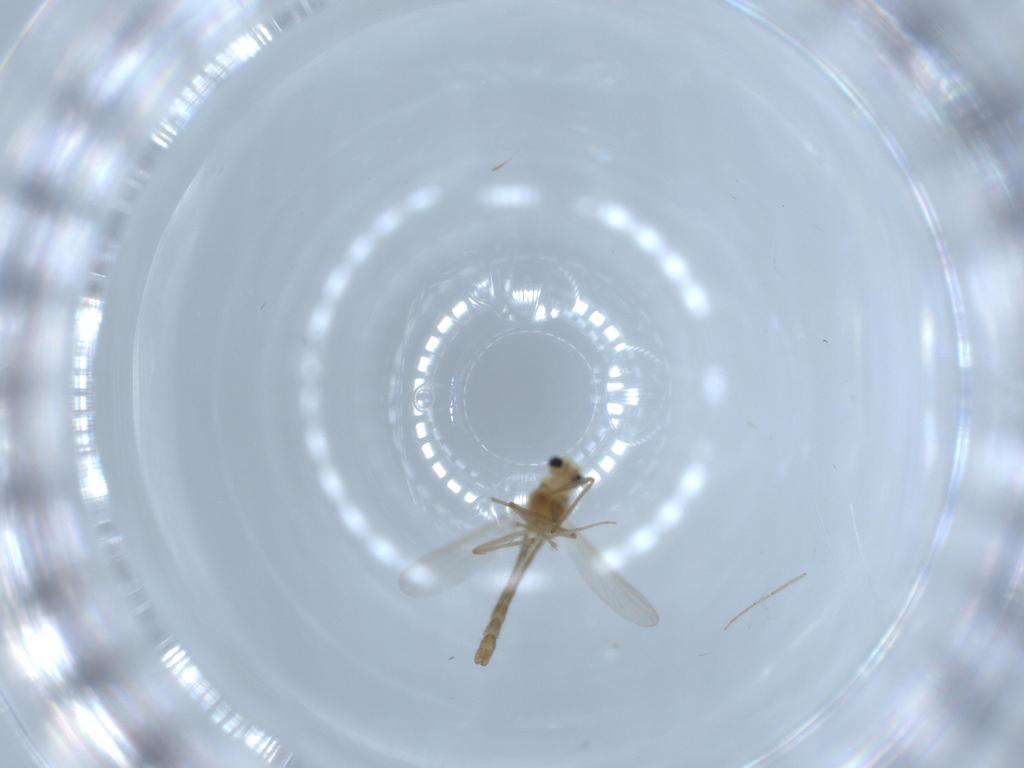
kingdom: Animalia
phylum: Arthropoda
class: Insecta
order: Diptera
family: Chironomidae
